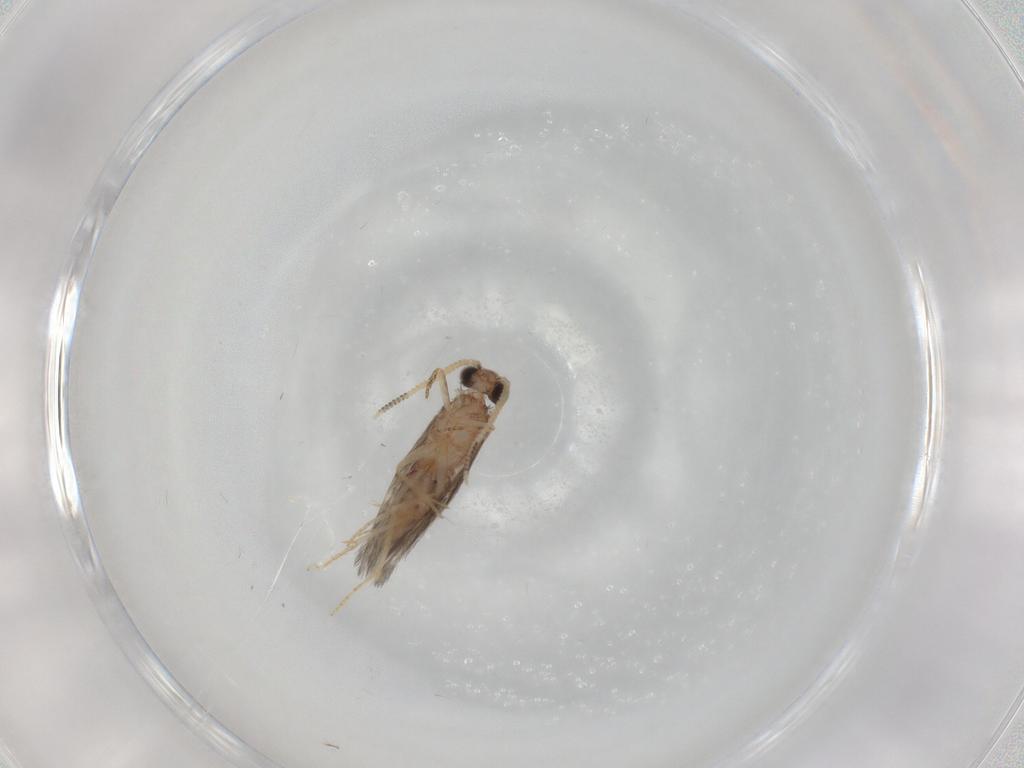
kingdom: Animalia
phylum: Arthropoda
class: Insecta
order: Trichoptera
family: Hydroptilidae
